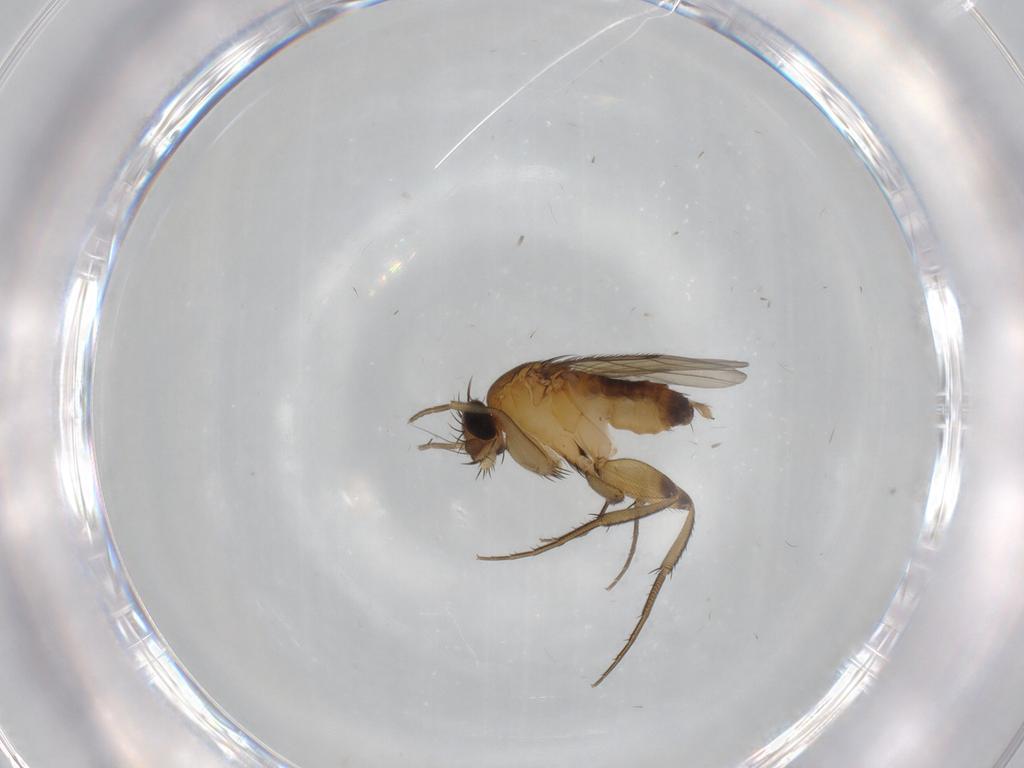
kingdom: Animalia
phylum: Arthropoda
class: Insecta
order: Diptera
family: Phoridae
